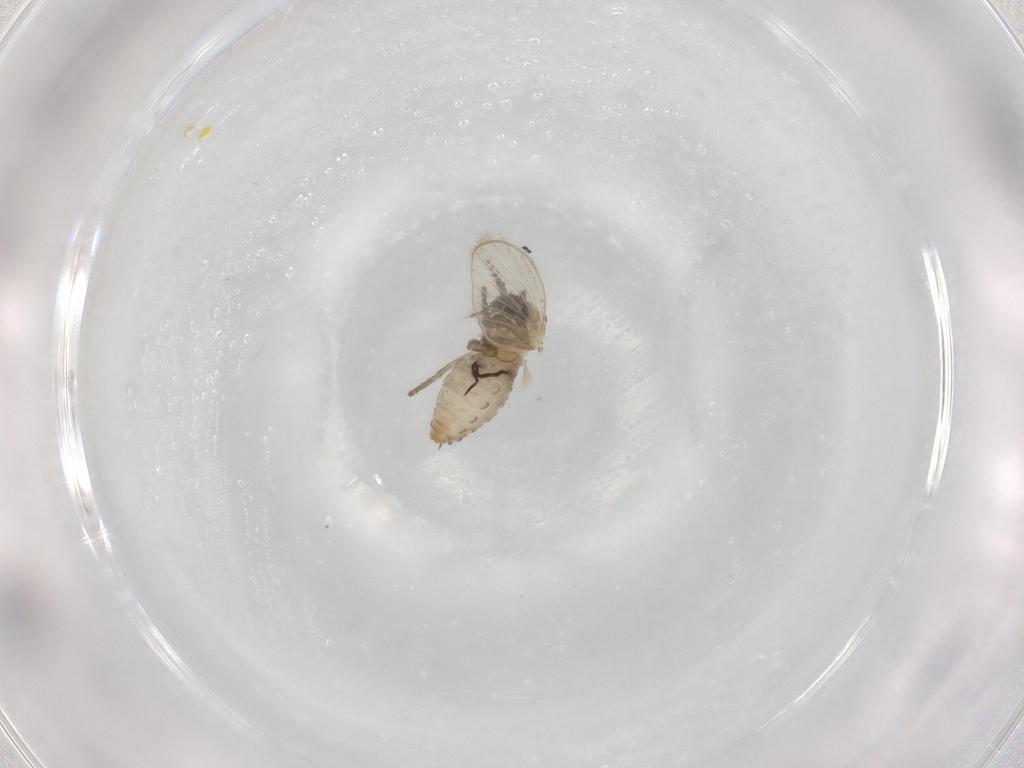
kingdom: Animalia
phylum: Arthropoda
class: Insecta
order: Diptera
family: Psychodidae
